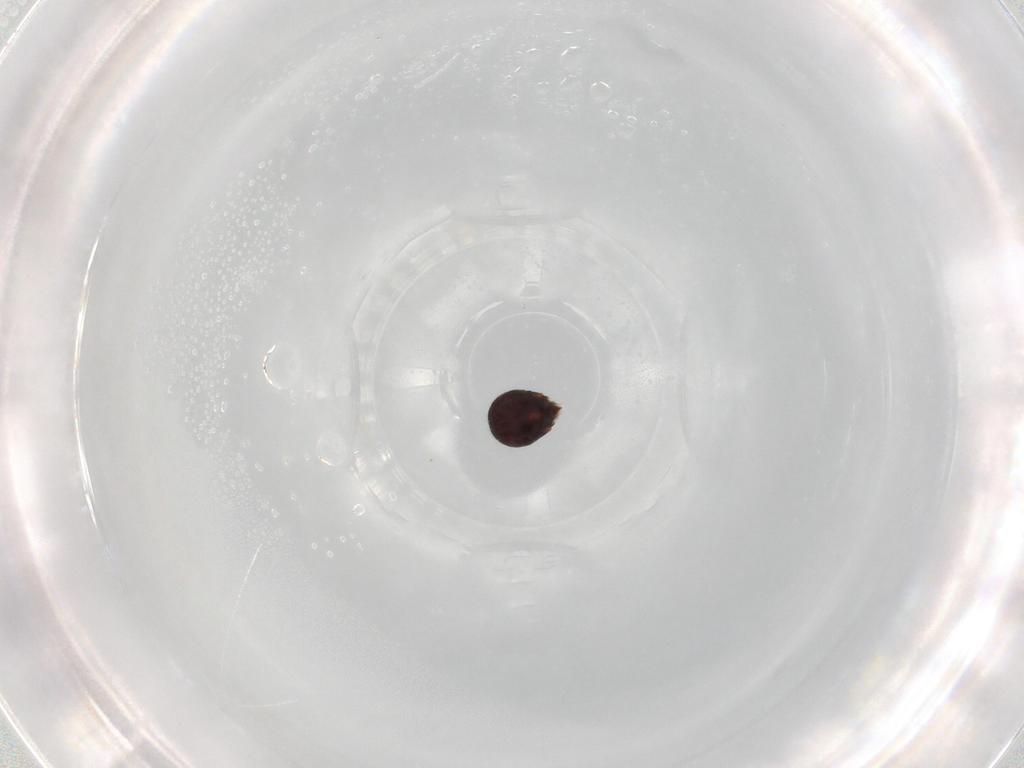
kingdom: Animalia
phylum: Arthropoda
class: Arachnida
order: Sarcoptiformes
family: Phenopelopidae
